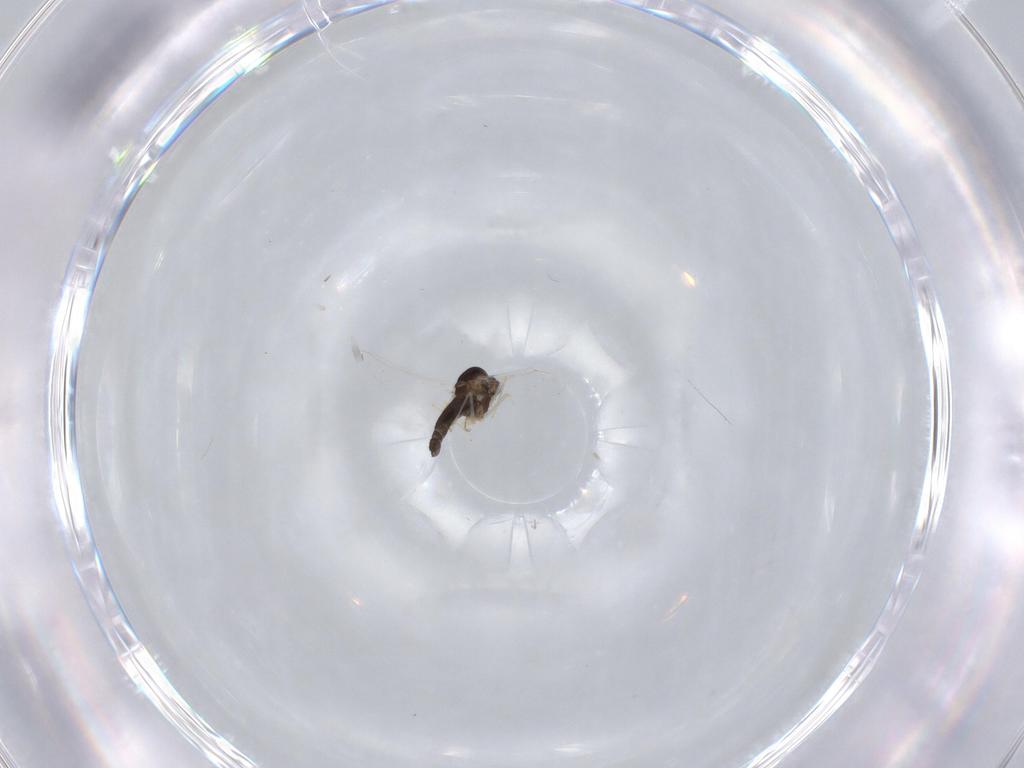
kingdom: Animalia
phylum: Arthropoda
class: Insecta
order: Diptera
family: Chironomidae
